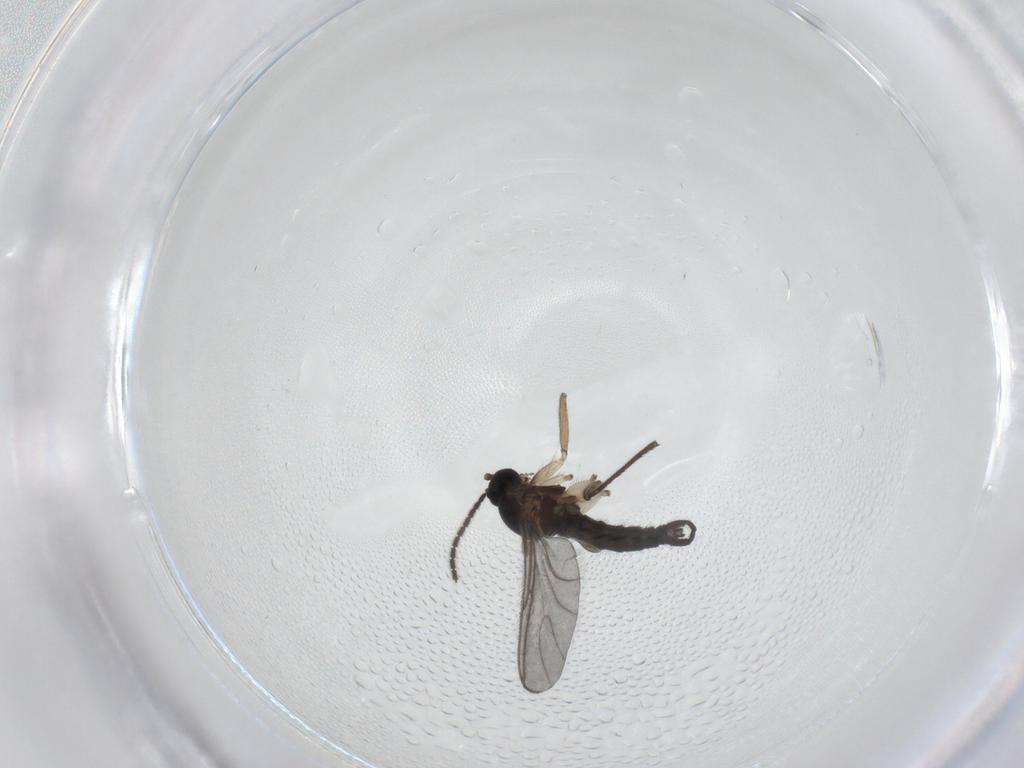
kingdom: Animalia
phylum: Arthropoda
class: Insecta
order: Diptera
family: Sciaridae
